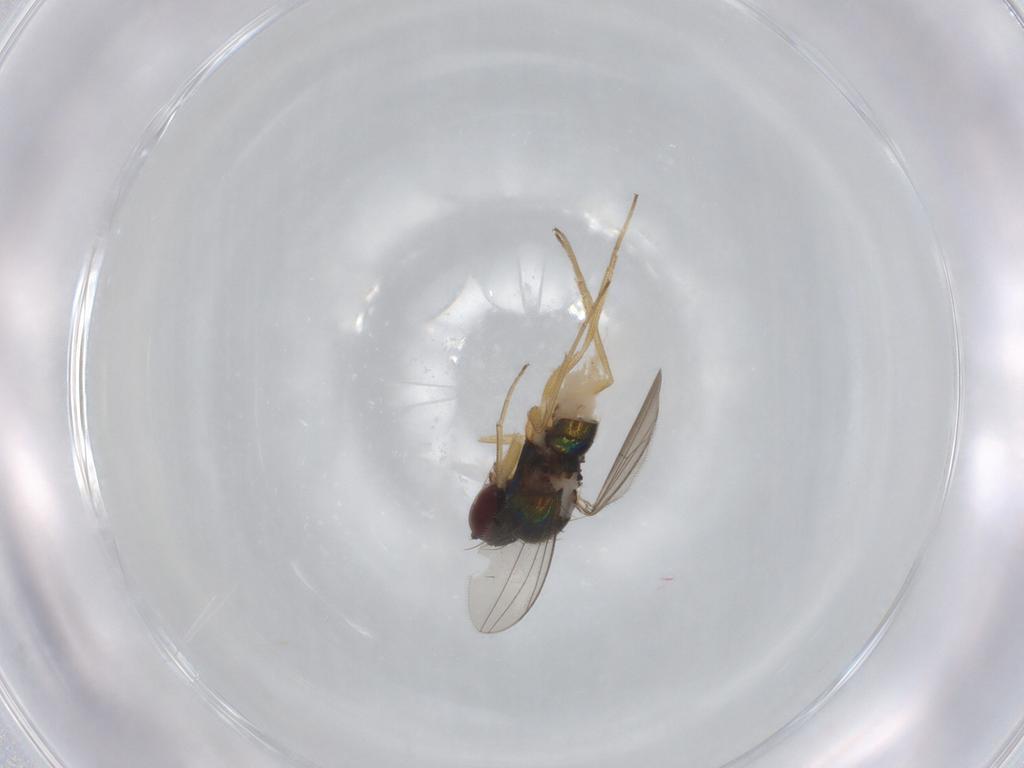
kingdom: Animalia
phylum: Arthropoda
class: Insecta
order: Diptera
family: Dolichopodidae
